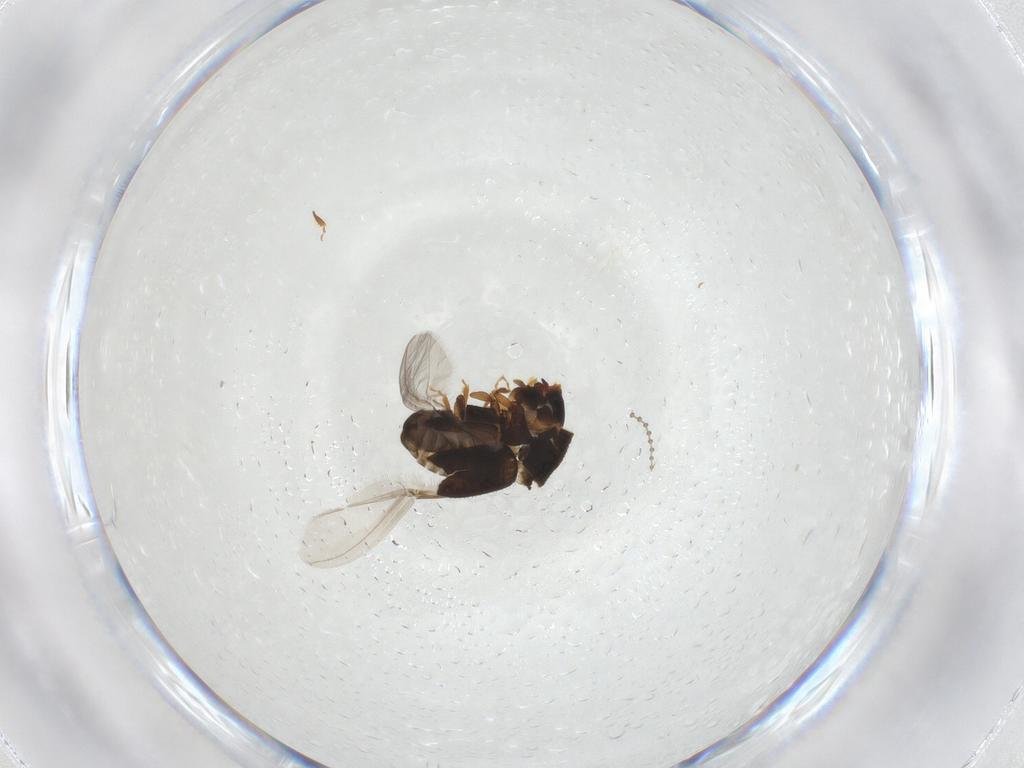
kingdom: Animalia
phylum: Arthropoda
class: Insecta
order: Coleoptera
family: Curculionidae
